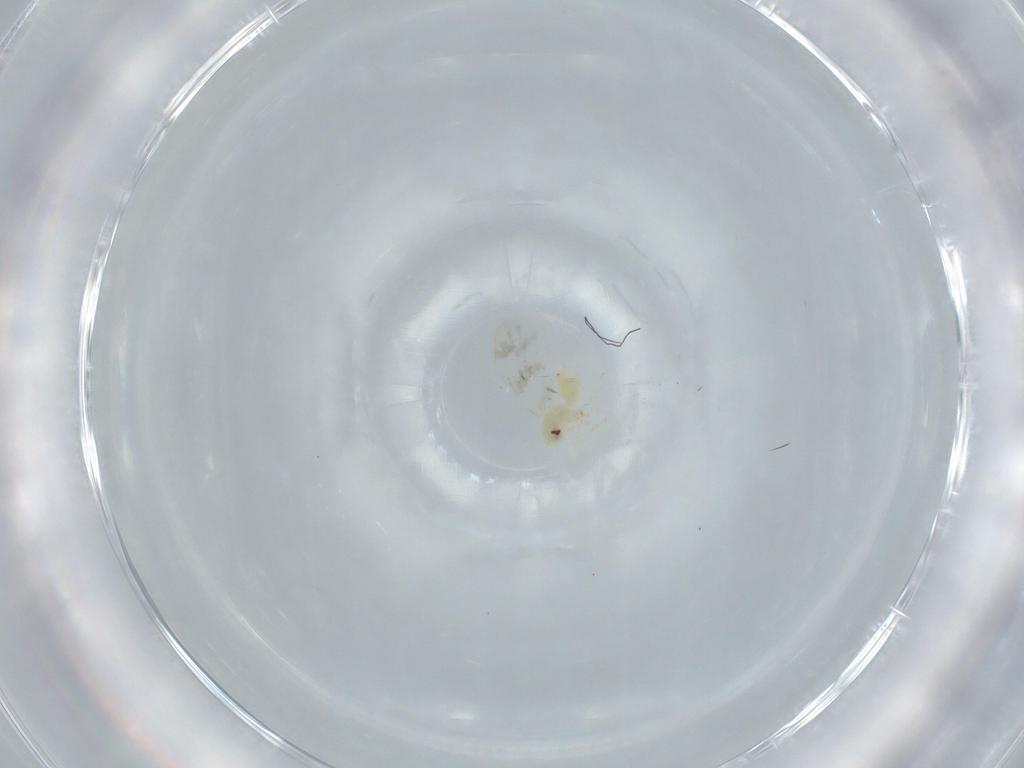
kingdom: Animalia
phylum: Arthropoda
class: Insecta
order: Hemiptera
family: Aleyrodidae
